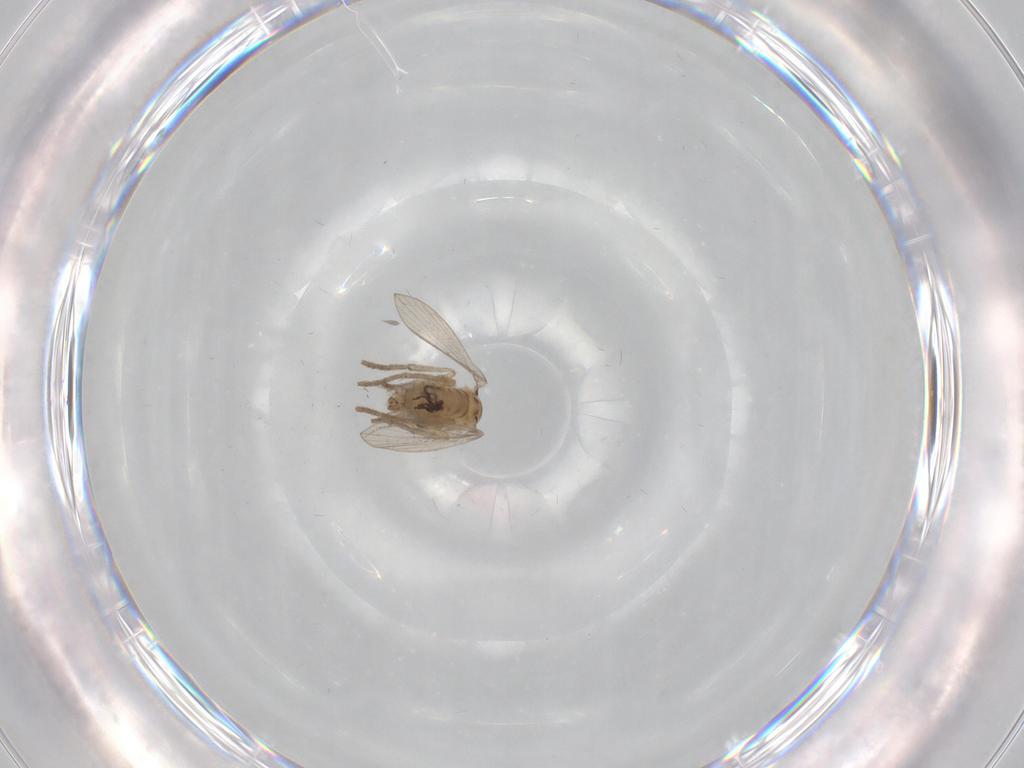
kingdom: Animalia
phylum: Arthropoda
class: Insecta
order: Diptera
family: Psychodidae
